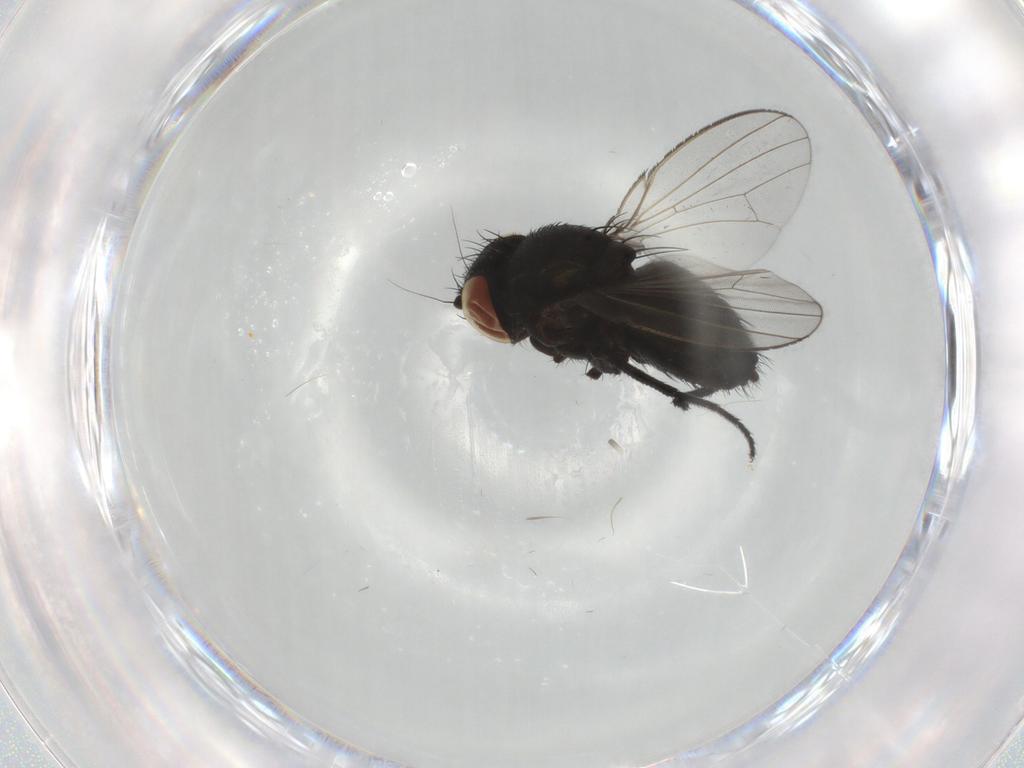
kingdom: Animalia
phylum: Arthropoda
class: Insecta
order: Diptera
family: Milichiidae
